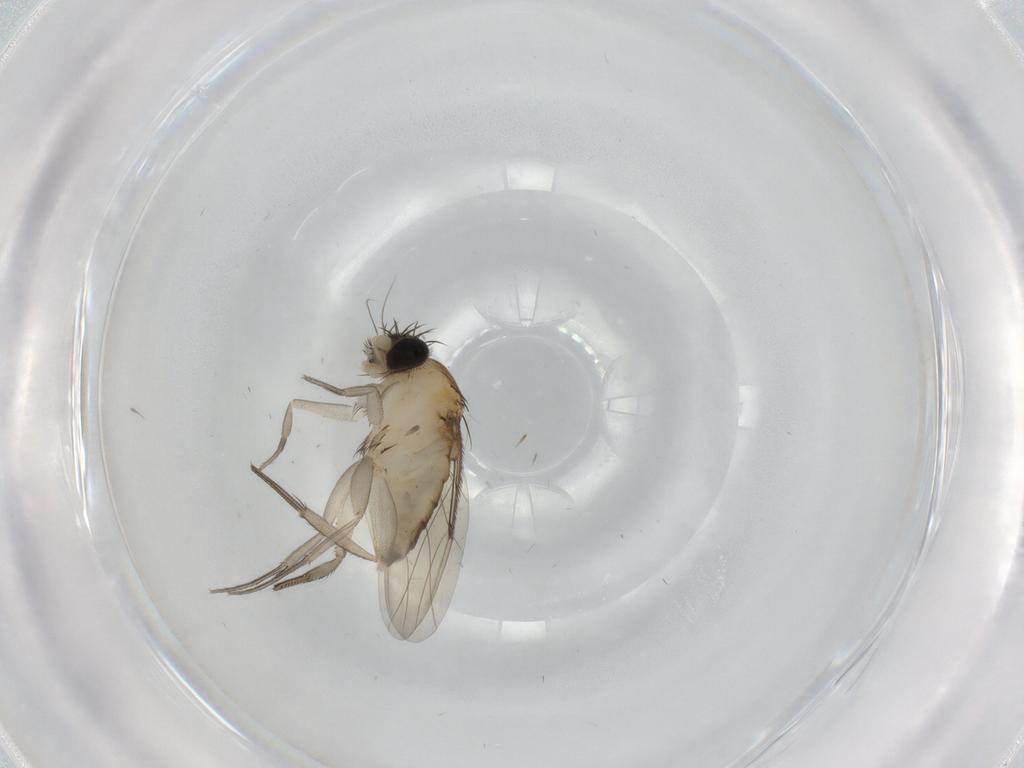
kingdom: Animalia
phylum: Arthropoda
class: Insecta
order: Diptera
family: Phoridae
